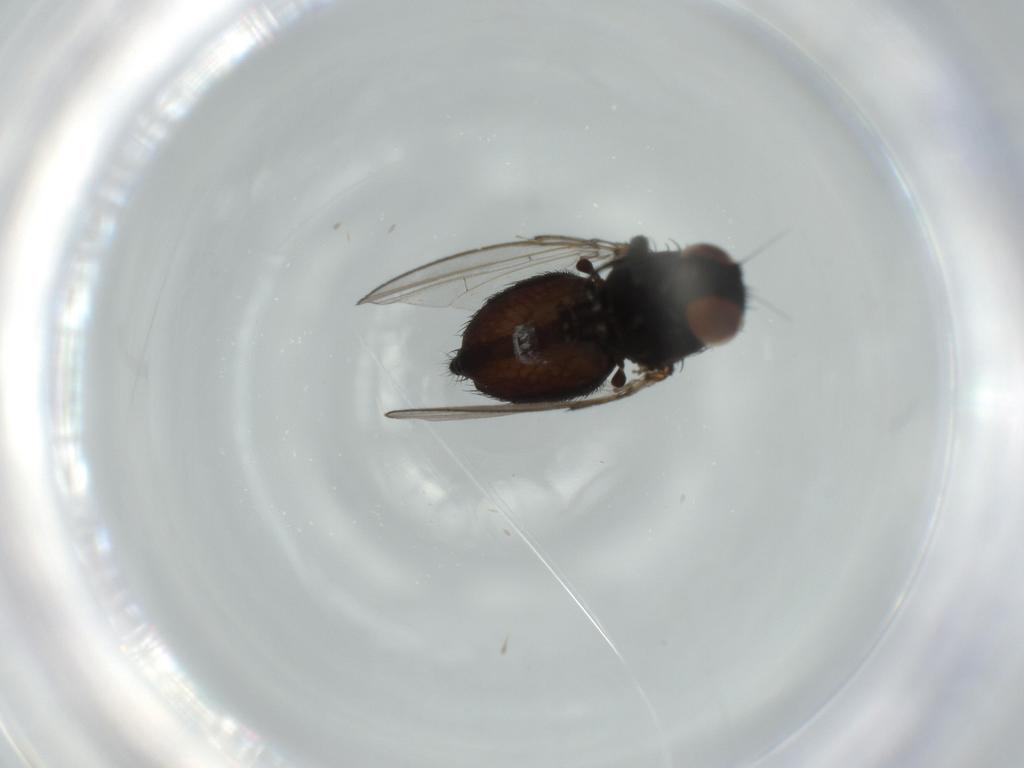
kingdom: Animalia
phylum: Arthropoda
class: Insecta
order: Diptera
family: Milichiidae
